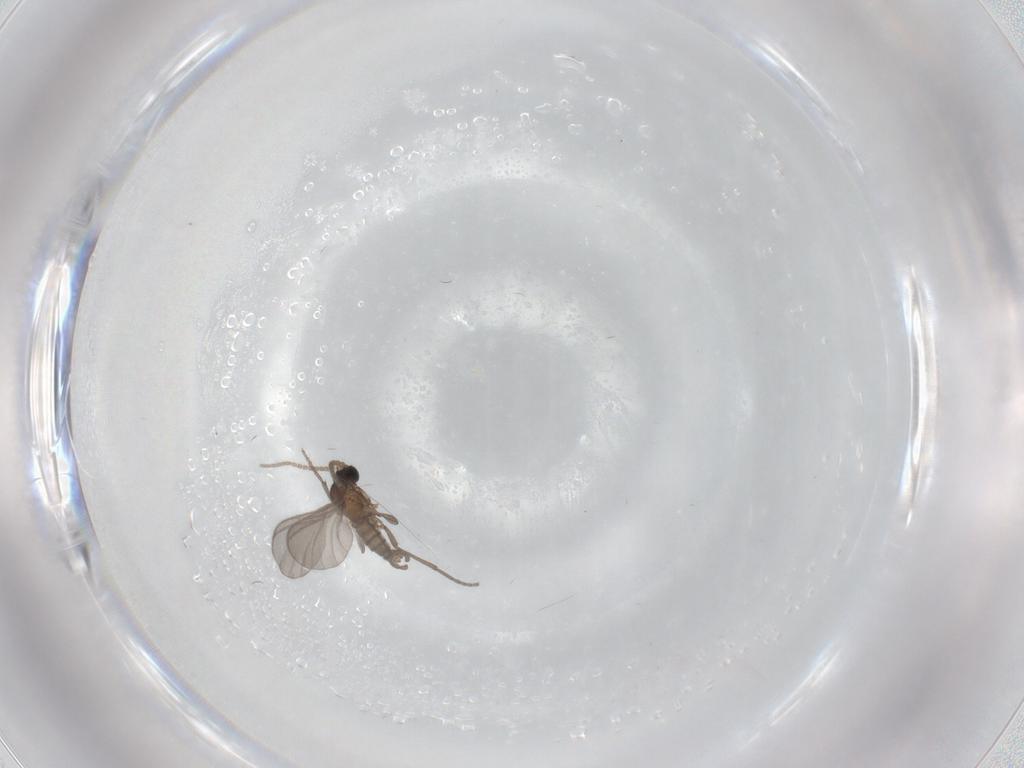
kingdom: Animalia
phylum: Arthropoda
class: Insecta
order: Diptera
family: Sciaridae
